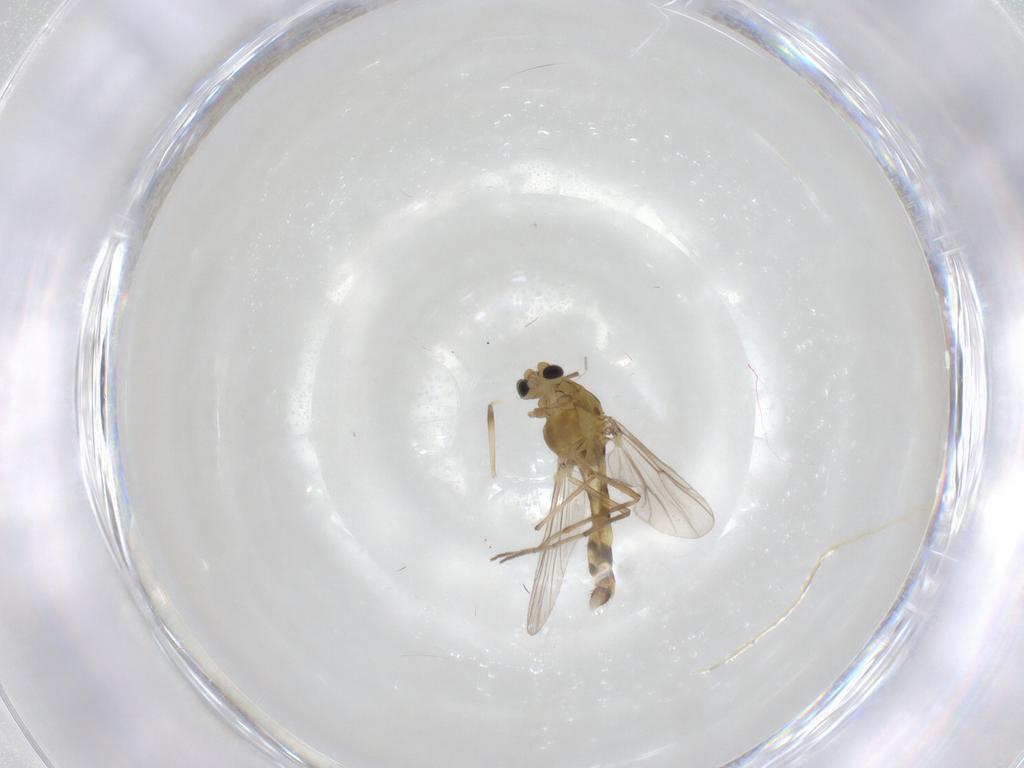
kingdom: Animalia
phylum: Arthropoda
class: Insecta
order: Diptera
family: Chironomidae
